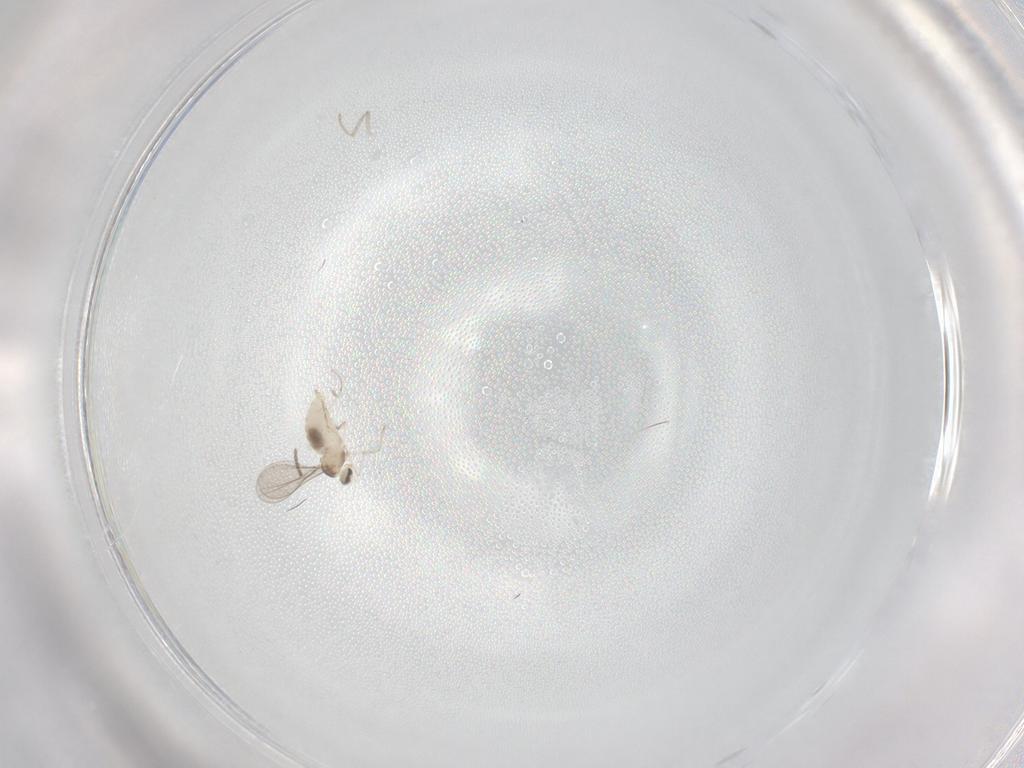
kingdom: Animalia
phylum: Arthropoda
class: Insecta
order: Diptera
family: Cecidomyiidae
